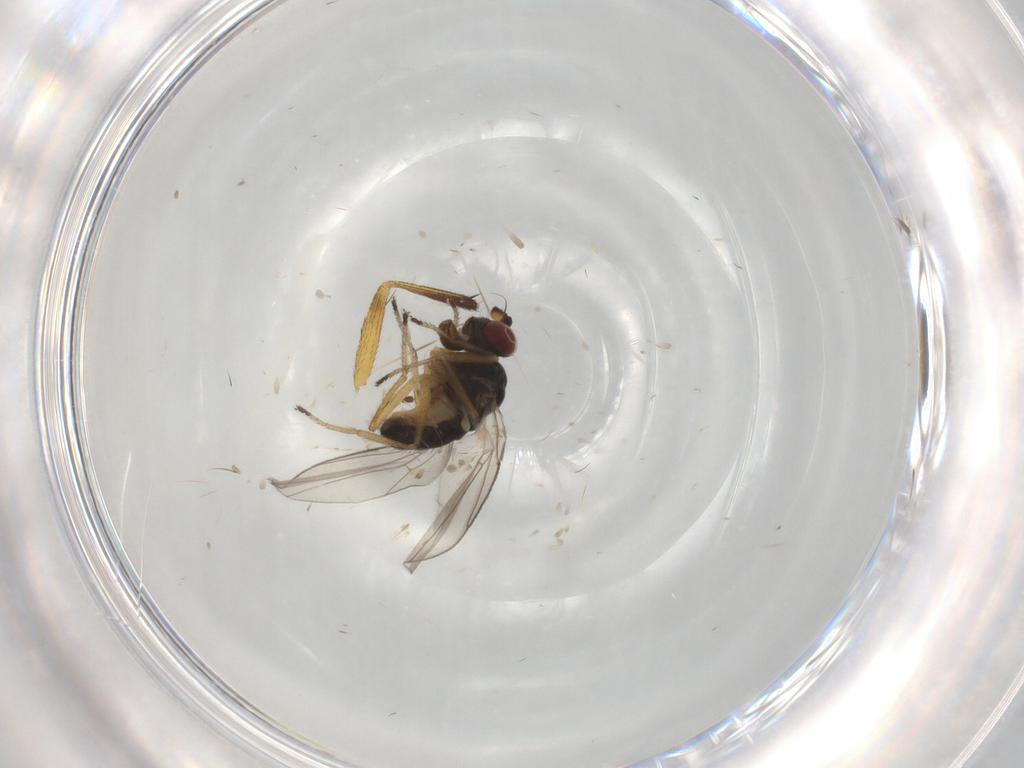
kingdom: Animalia
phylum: Arthropoda
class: Insecta
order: Diptera
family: Ephydridae
